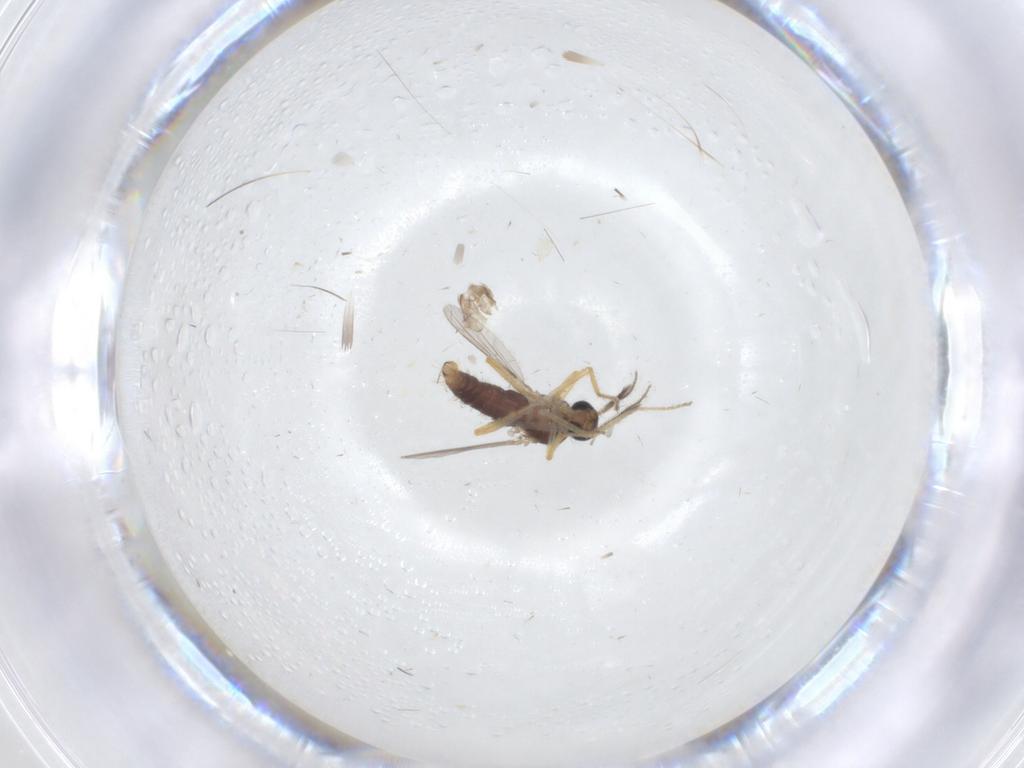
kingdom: Animalia
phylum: Arthropoda
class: Insecta
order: Diptera
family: Ceratopogonidae
